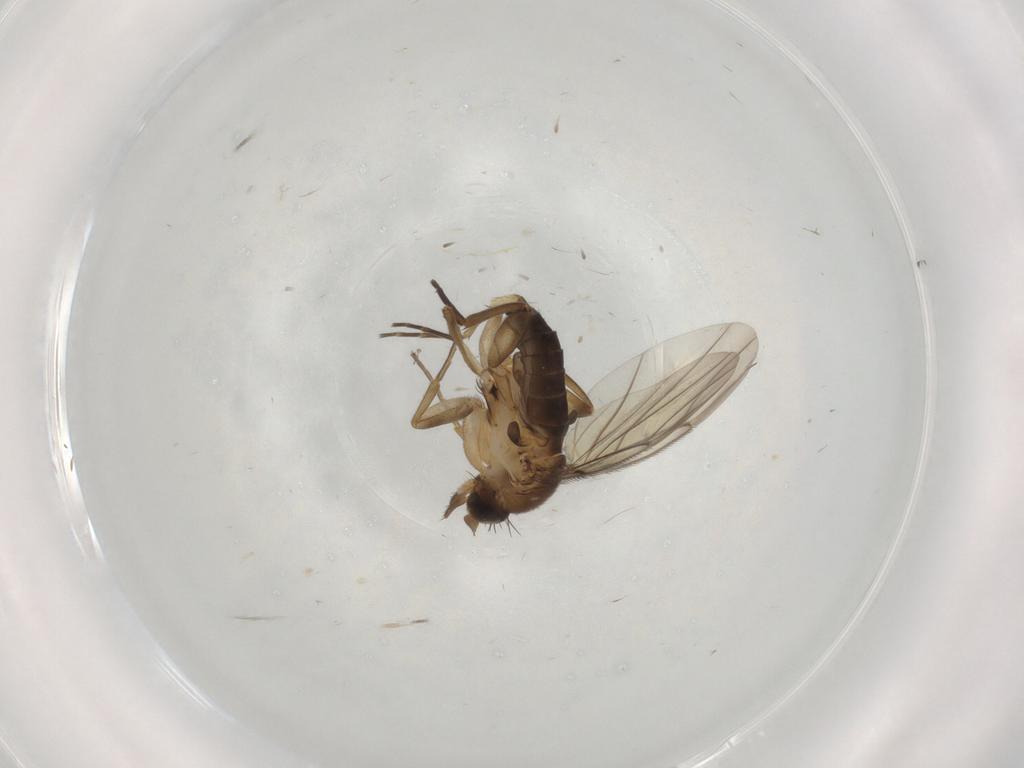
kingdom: Animalia
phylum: Arthropoda
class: Insecta
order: Diptera
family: Phoridae
